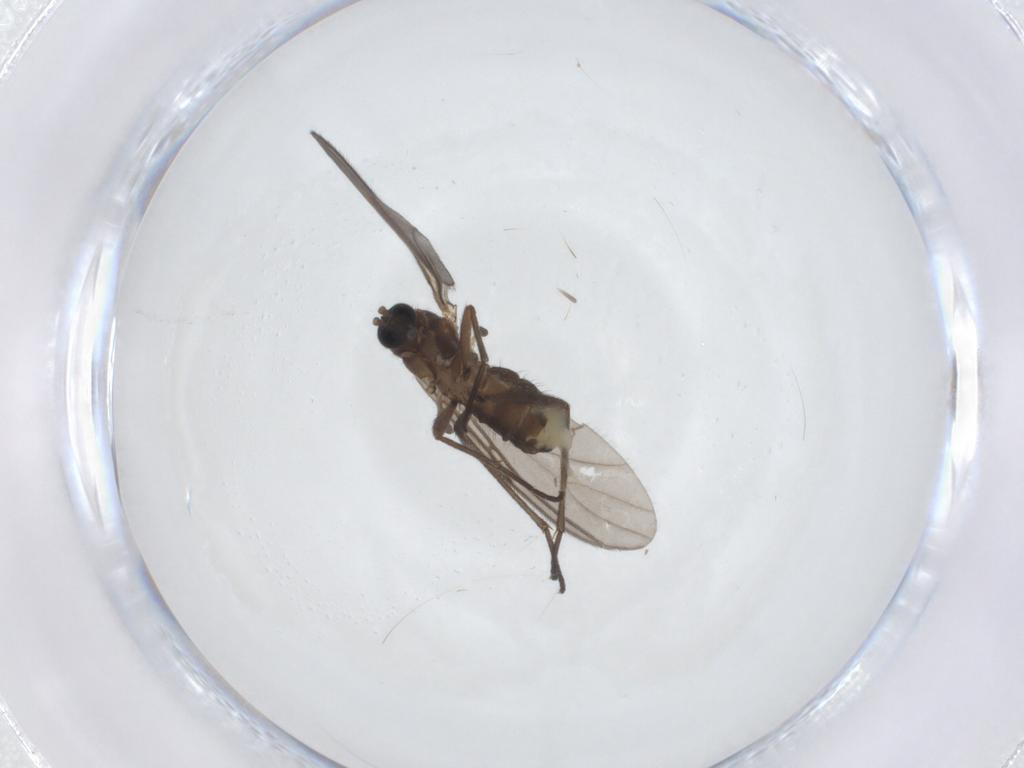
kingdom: Animalia
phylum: Arthropoda
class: Insecta
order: Diptera
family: Sciaridae
